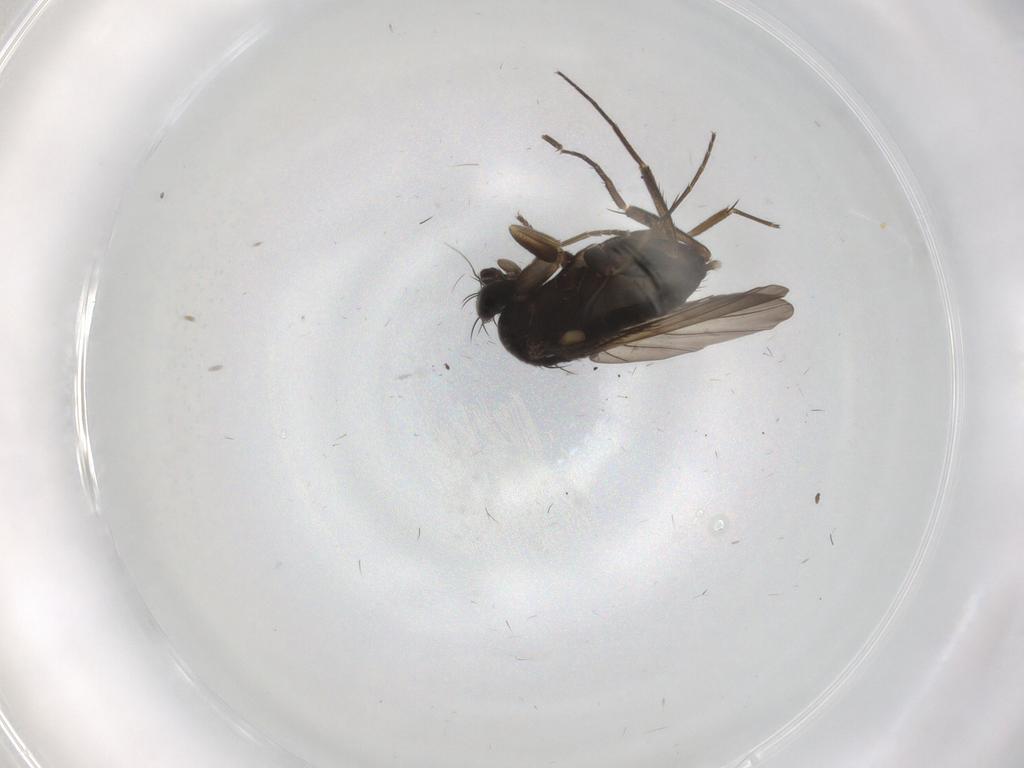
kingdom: Animalia
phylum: Arthropoda
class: Insecta
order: Diptera
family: Phoridae
